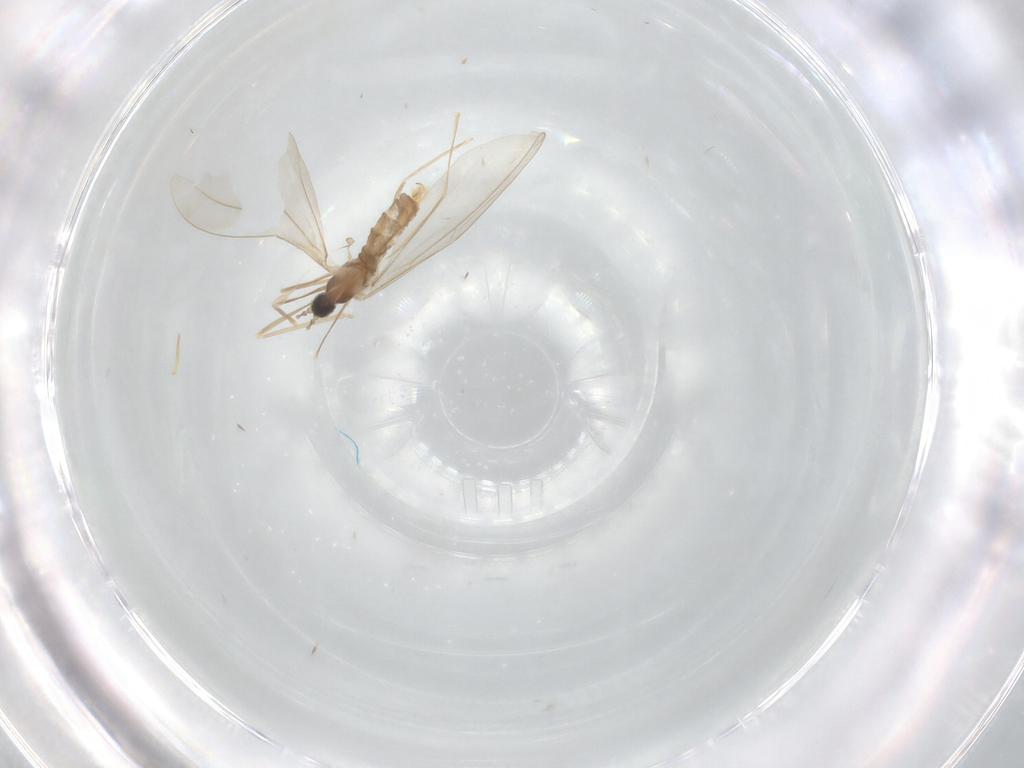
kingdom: Animalia
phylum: Arthropoda
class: Insecta
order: Diptera
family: Cecidomyiidae
